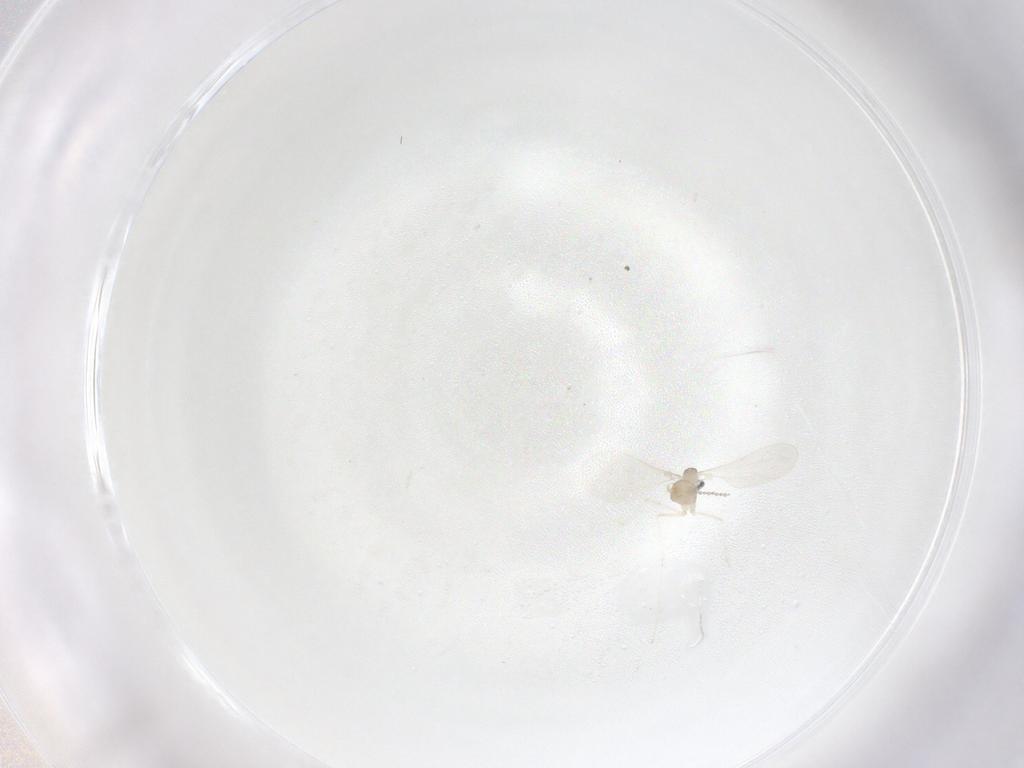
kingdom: Animalia
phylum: Arthropoda
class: Insecta
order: Diptera
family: Cecidomyiidae
